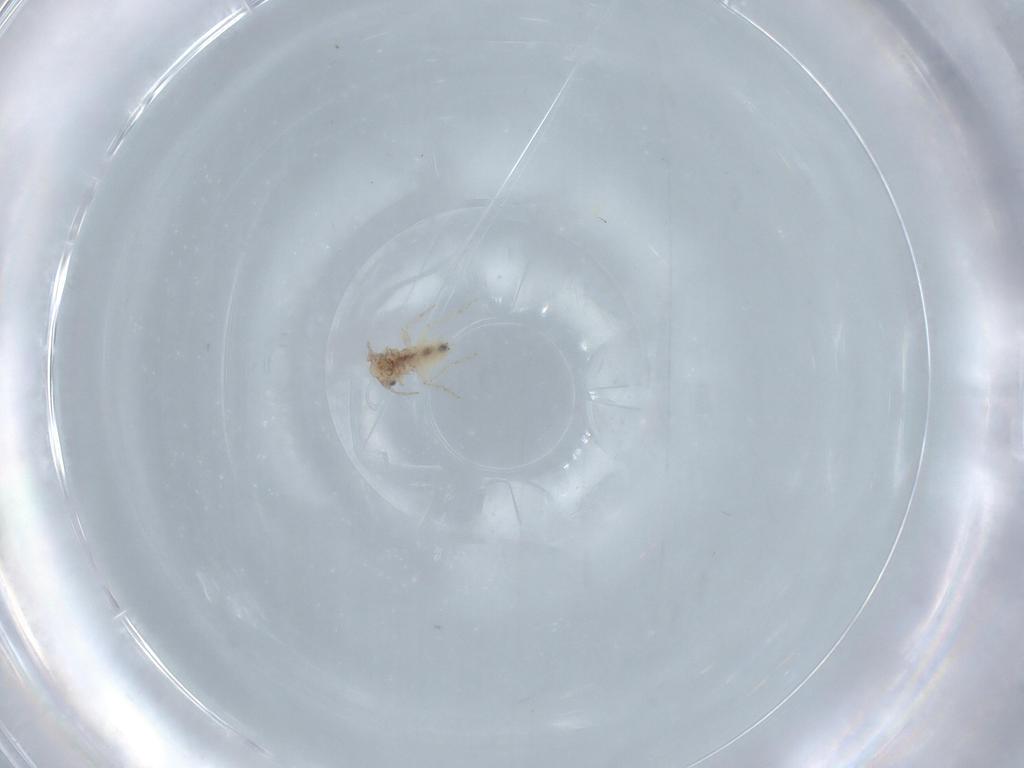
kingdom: Animalia
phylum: Arthropoda
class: Insecta
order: Psocodea
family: Lepidopsocidae
